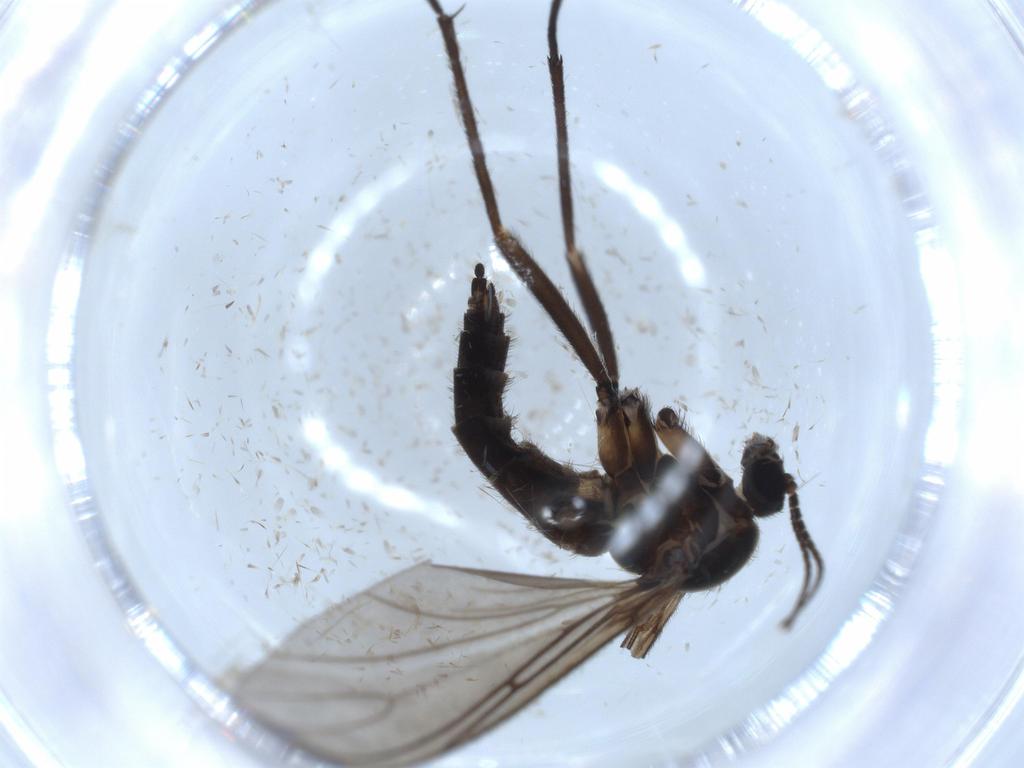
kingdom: Animalia
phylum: Arthropoda
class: Insecta
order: Diptera
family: Sciaridae
